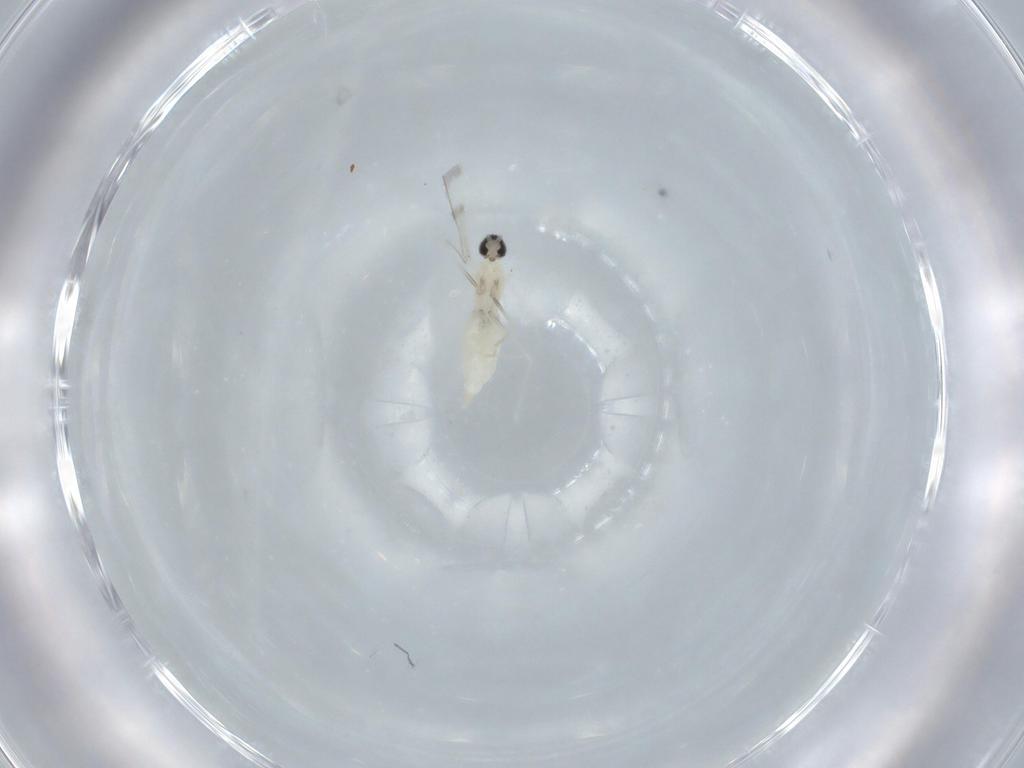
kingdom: Animalia
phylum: Arthropoda
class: Insecta
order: Diptera
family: Cecidomyiidae
